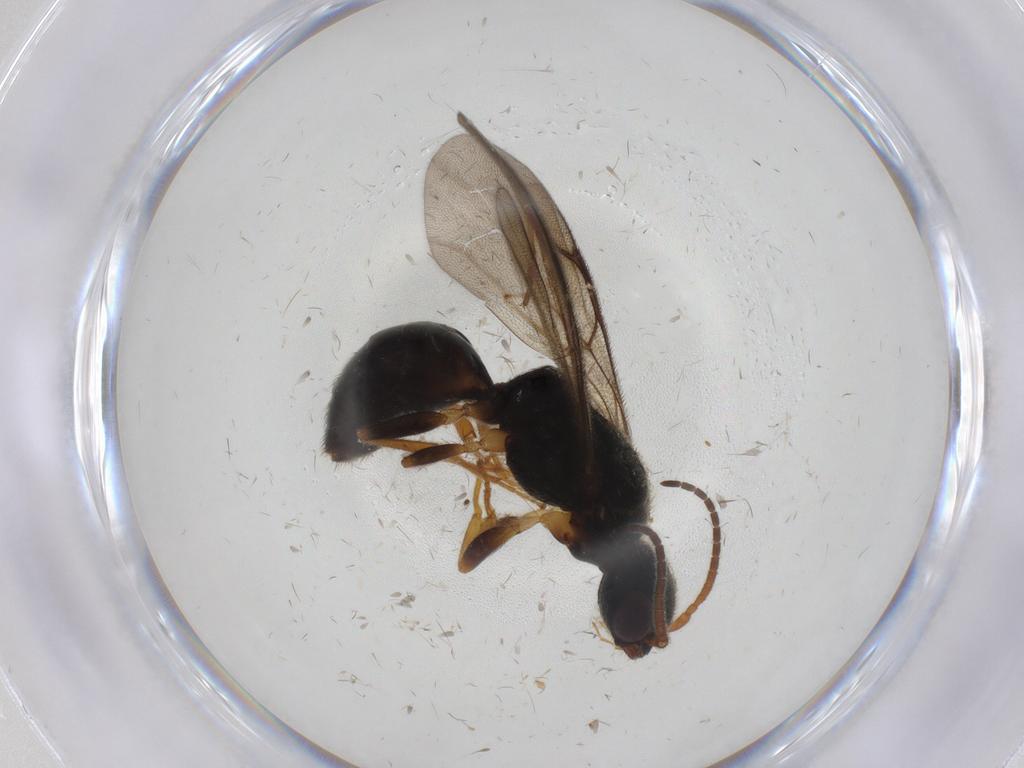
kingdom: Animalia
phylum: Arthropoda
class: Insecta
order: Hymenoptera
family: Bethylidae
